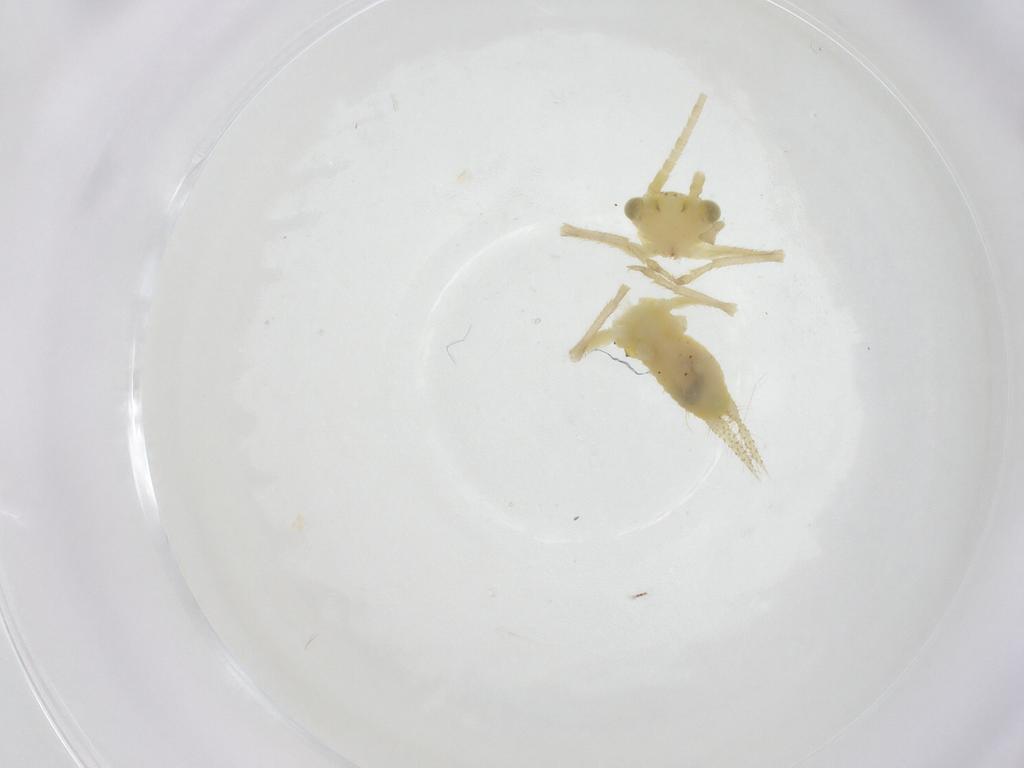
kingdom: Animalia
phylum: Arthropoda
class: Insecta
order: Orthoptera
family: Trigonidiidae
